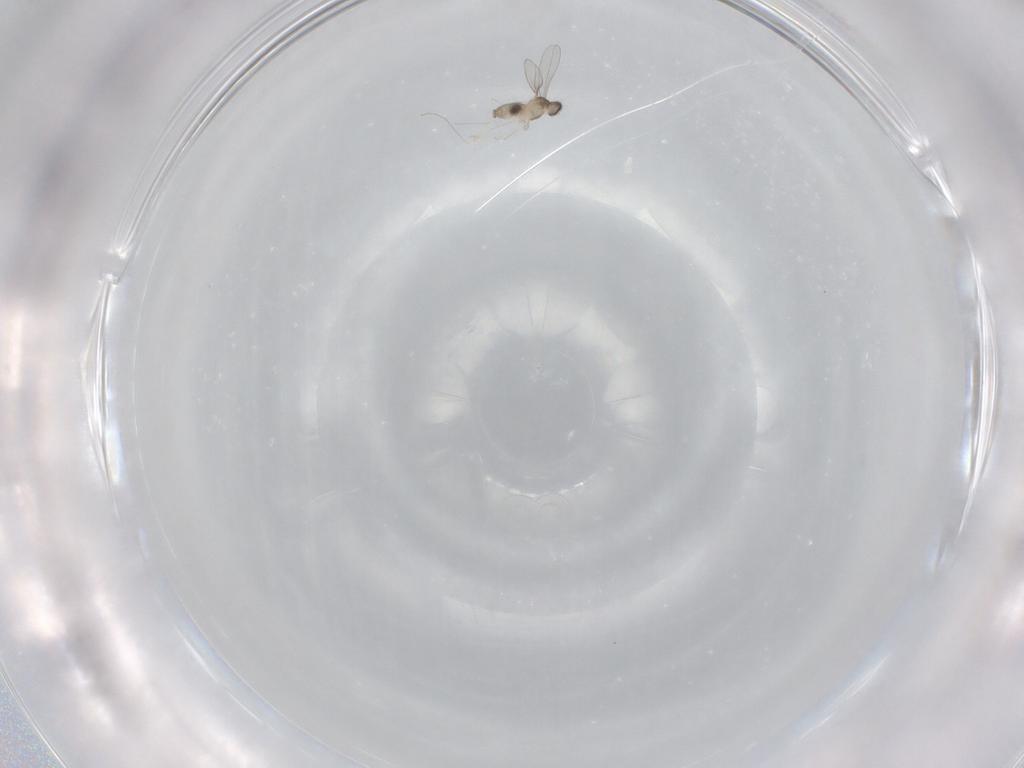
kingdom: Animalia
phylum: Arthropoda
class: Insecta
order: Diptera
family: Cecidomyiidae
